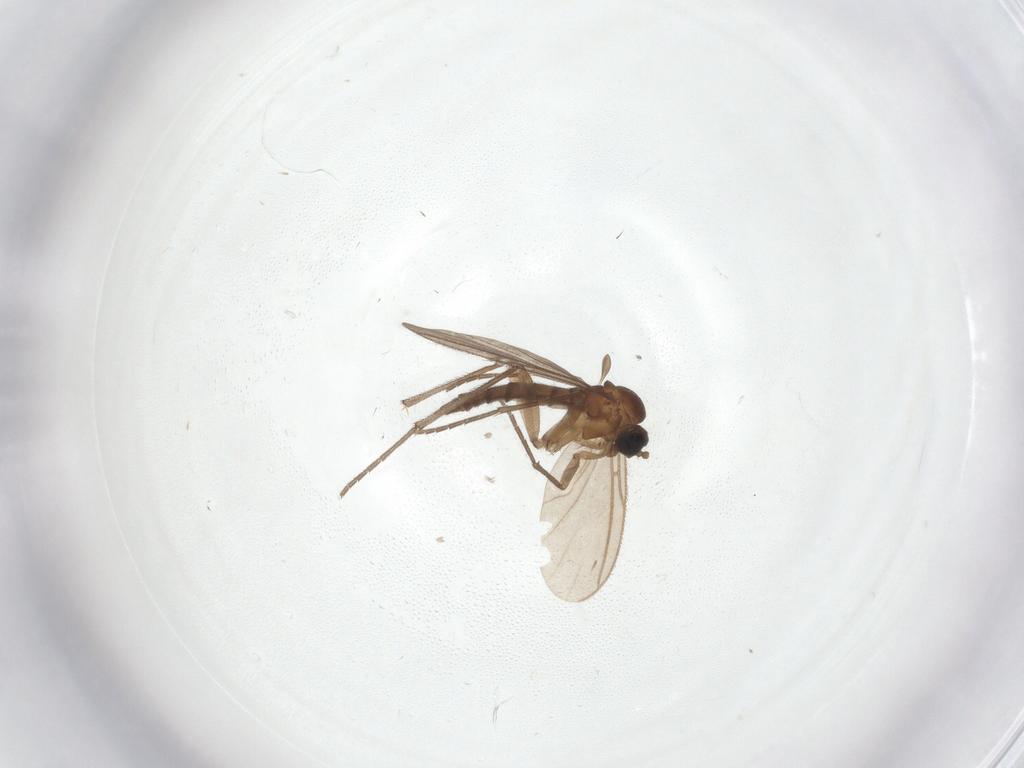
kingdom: Animalia
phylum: Arthropoda
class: Insecta
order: Diptera
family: Sciaridae
